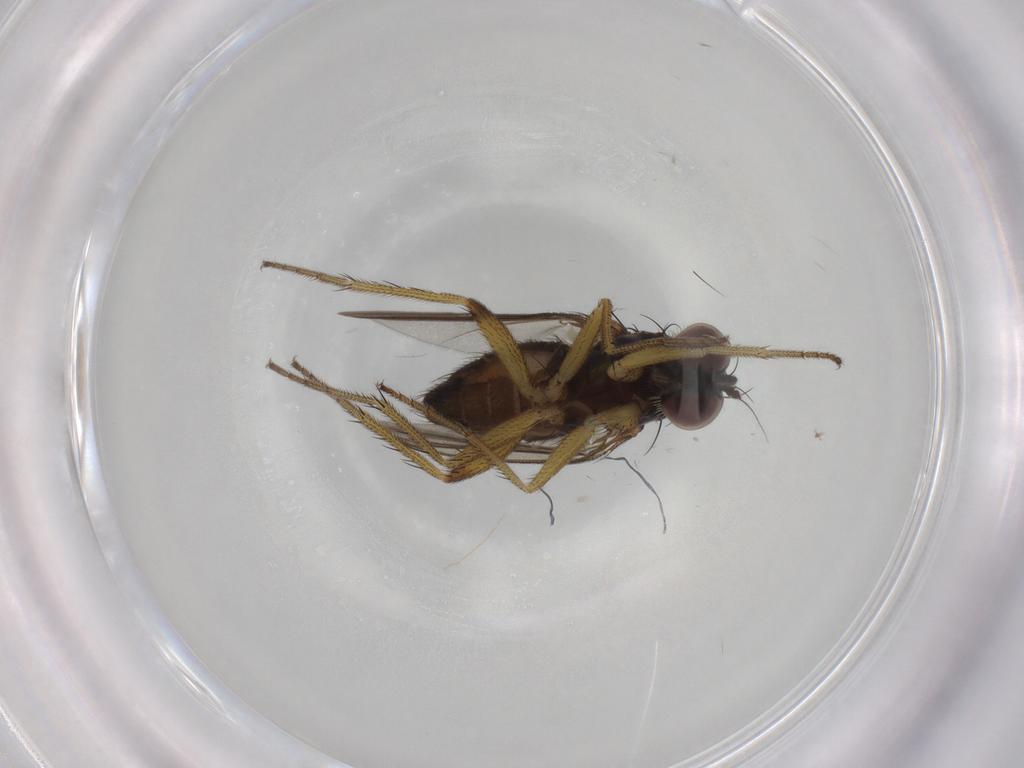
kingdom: Animalia
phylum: Arthropoda
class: Insecta
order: Diptera
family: Dolichopodidae
